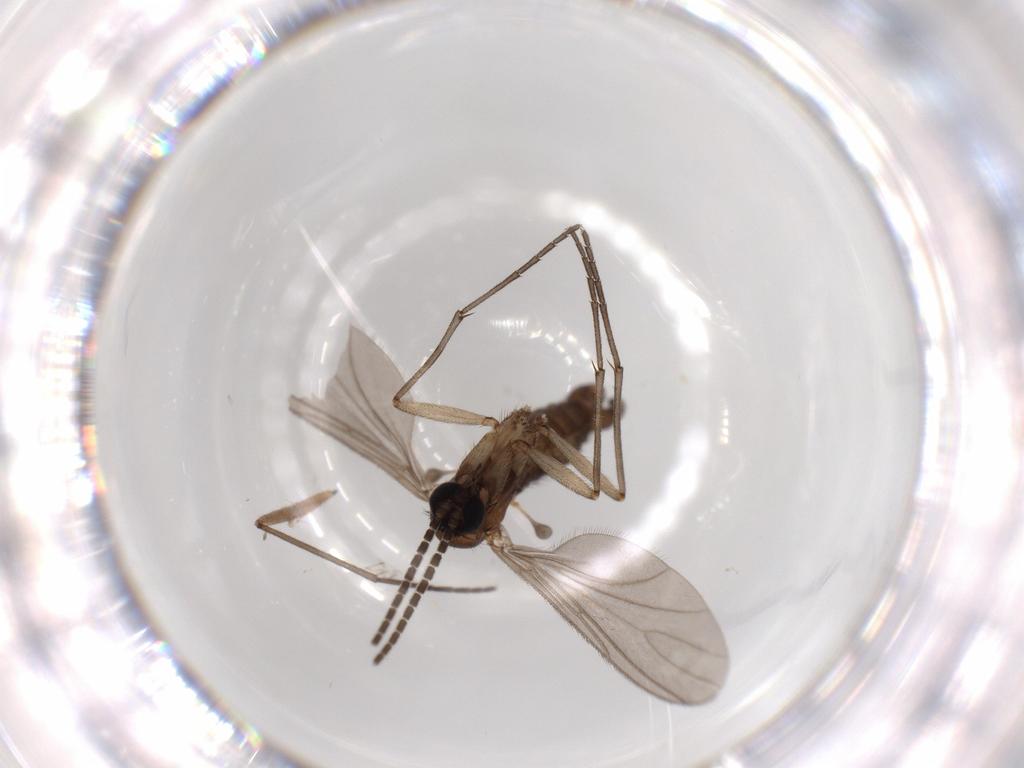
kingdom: Animalia
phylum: Arthropoda
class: Insecta
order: Diptera
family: Sciaridae
